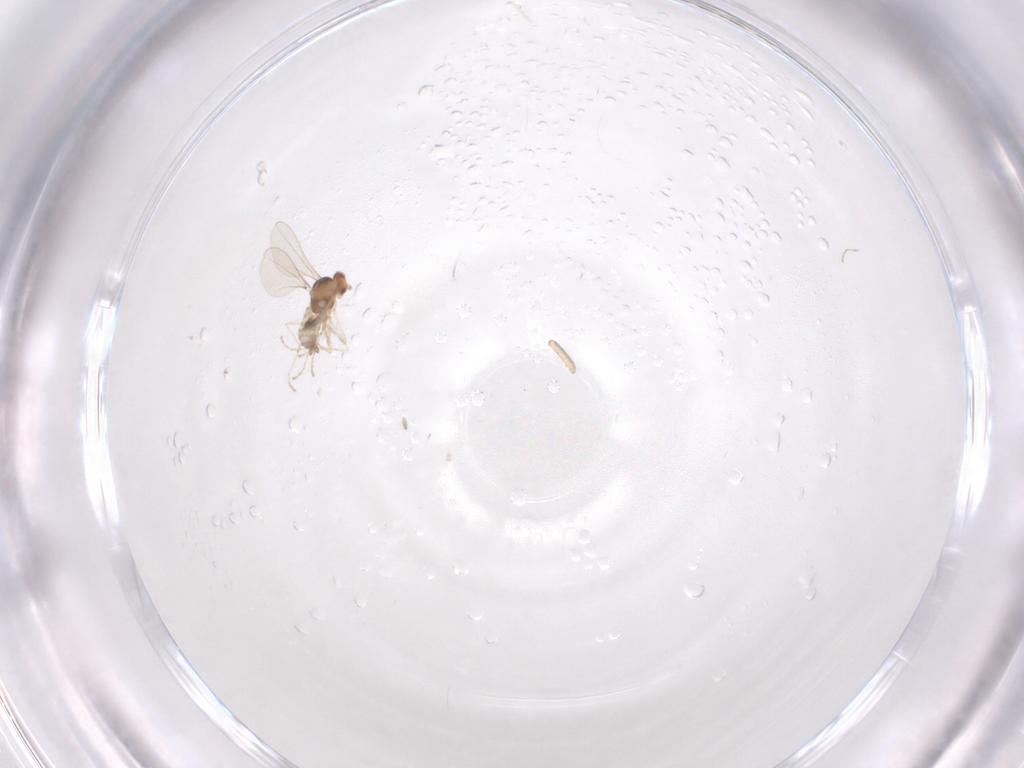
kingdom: Animalia
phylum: Arthropoda
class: Insecta
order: Diptera
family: Cecidomyiidae
